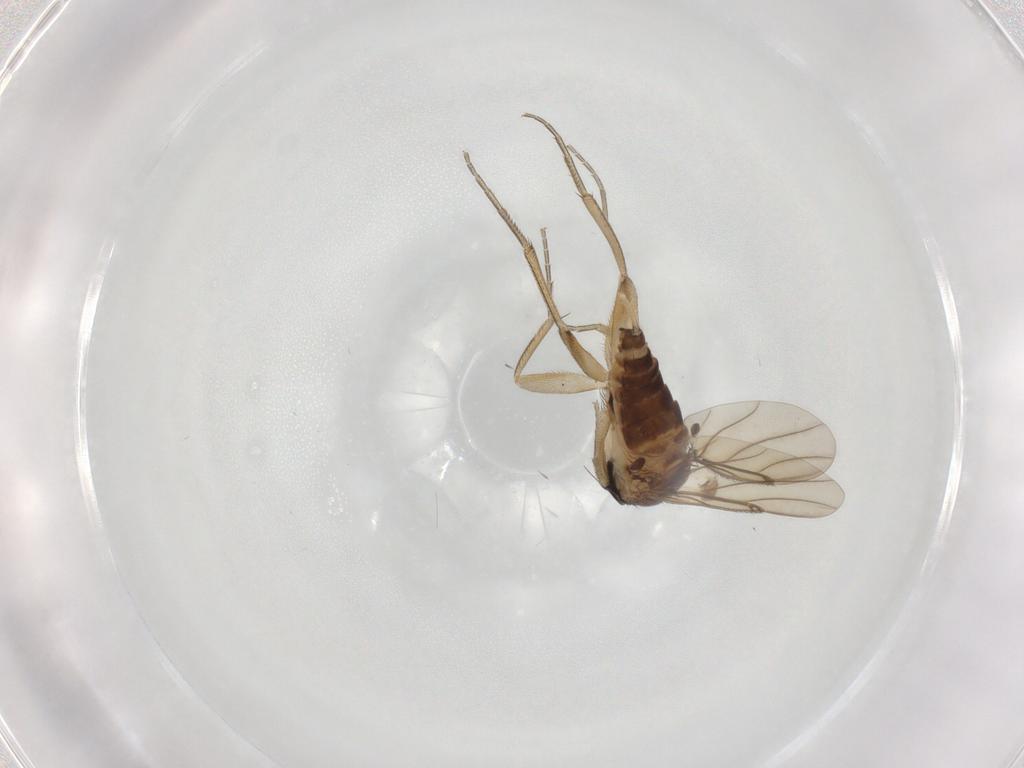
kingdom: Animalia
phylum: Arthropoda
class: Insecta
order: Diptera
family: Phoridae
